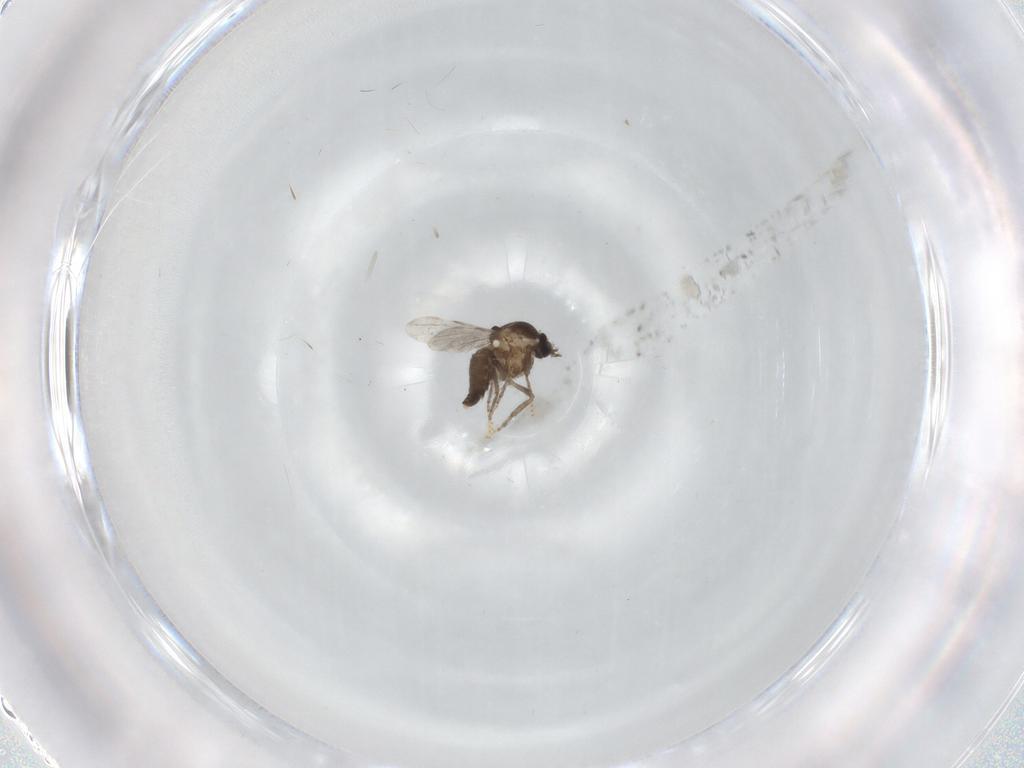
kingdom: Animalia
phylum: Arthropoda
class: Insecta
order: Diptera
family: Ceratopogonidae
